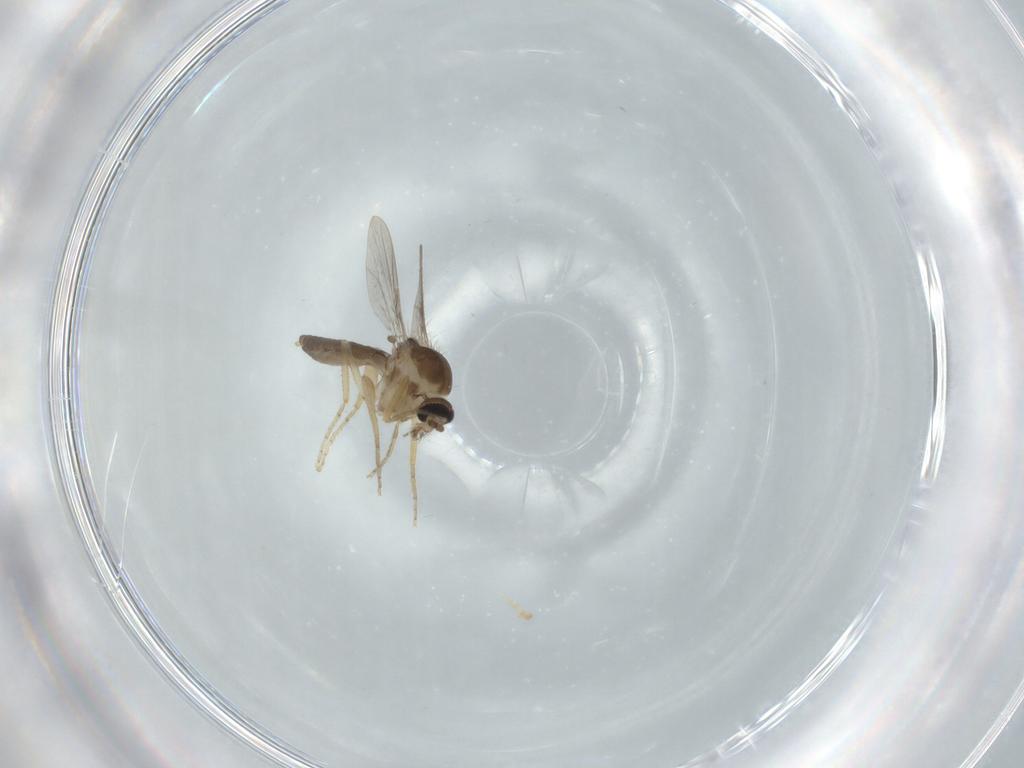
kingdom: Animalia
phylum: Arthropoda
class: Insecta
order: Diptera
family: Ceratopogonidae
